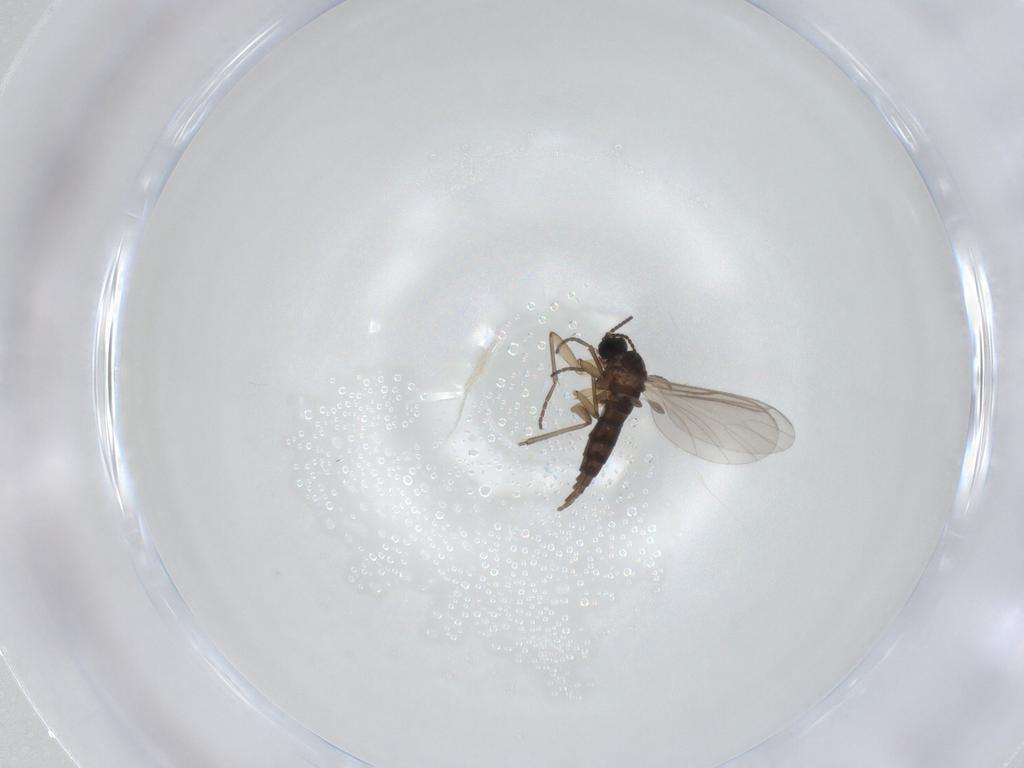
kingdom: Animalia
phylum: Arthropoda
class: Insecta
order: Diptera
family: Sciaridae
